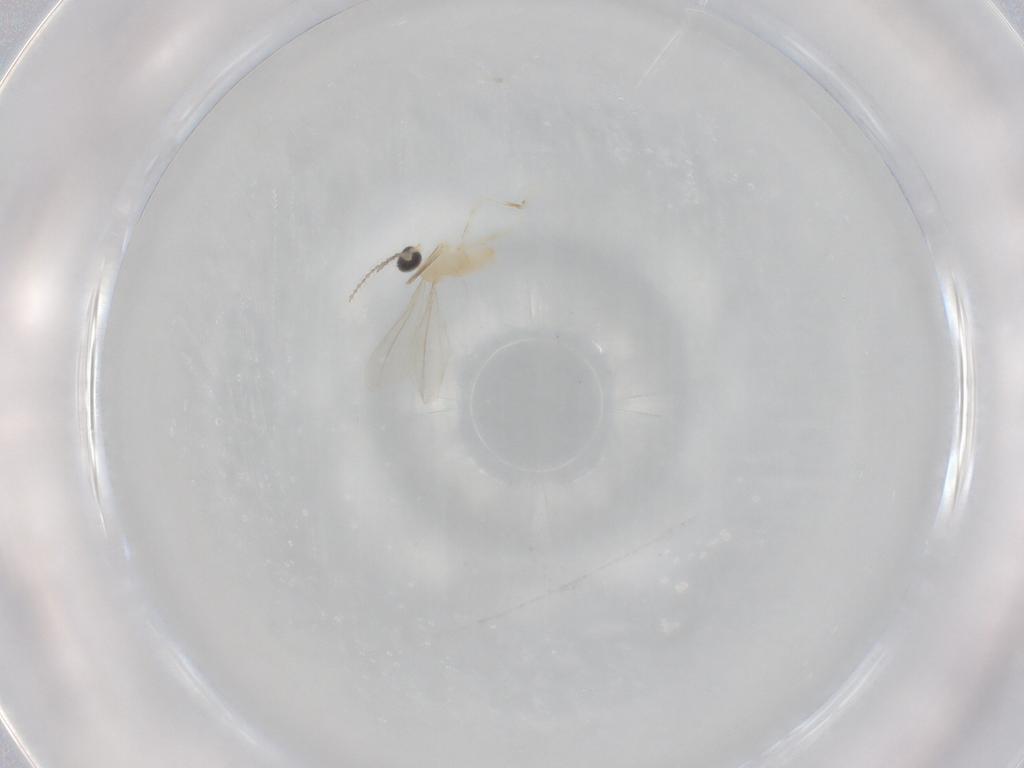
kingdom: Animalia
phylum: Arthropoda
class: Insecta
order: Diptera
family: Cecidomyiidae
